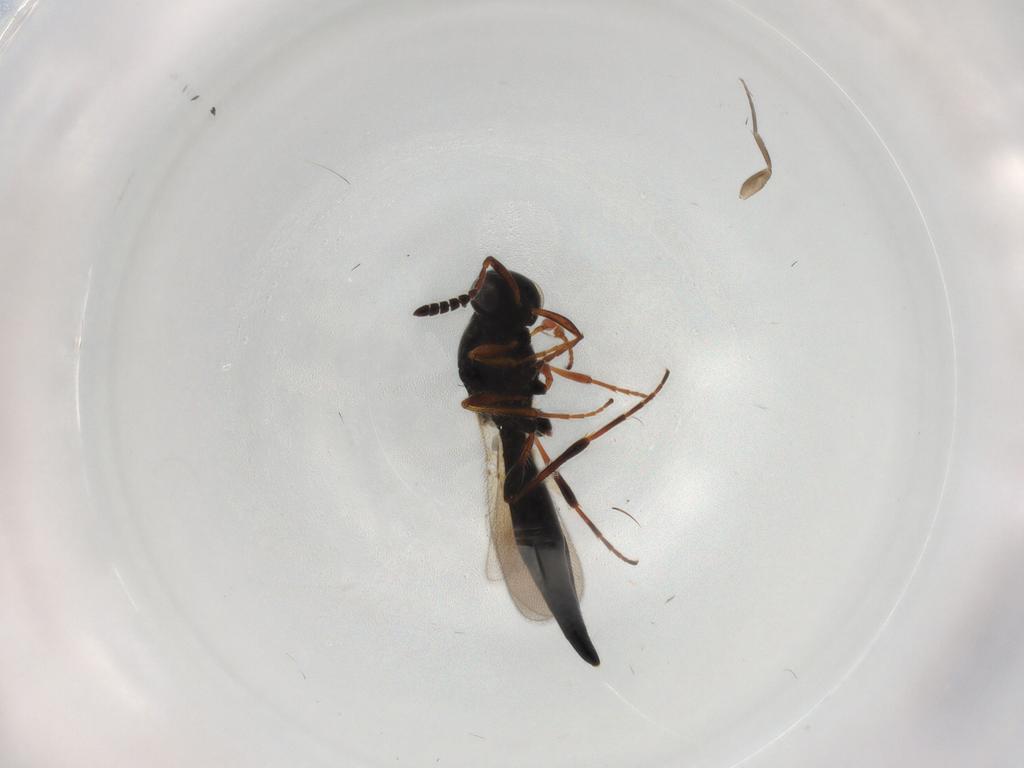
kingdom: Animalia
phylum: Arthropoda
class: Insecta
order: Hymenoptera
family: Platygastridae
